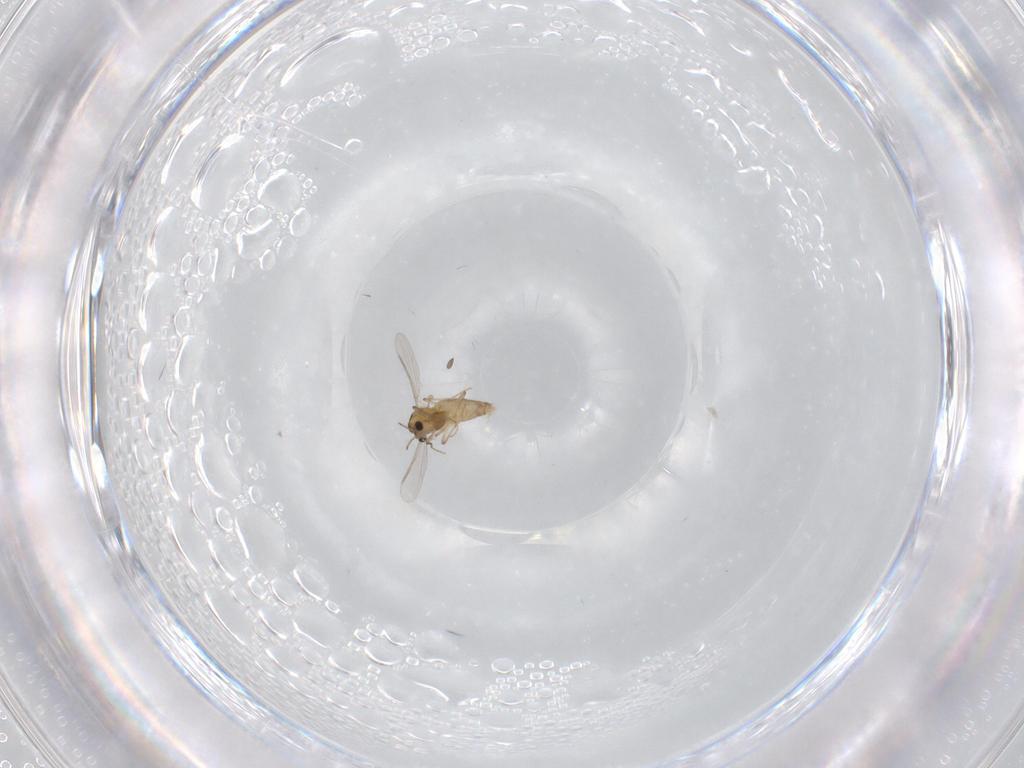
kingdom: Animalia
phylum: Arthropoda
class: Insecta
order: Diptera
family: Chironomidae
